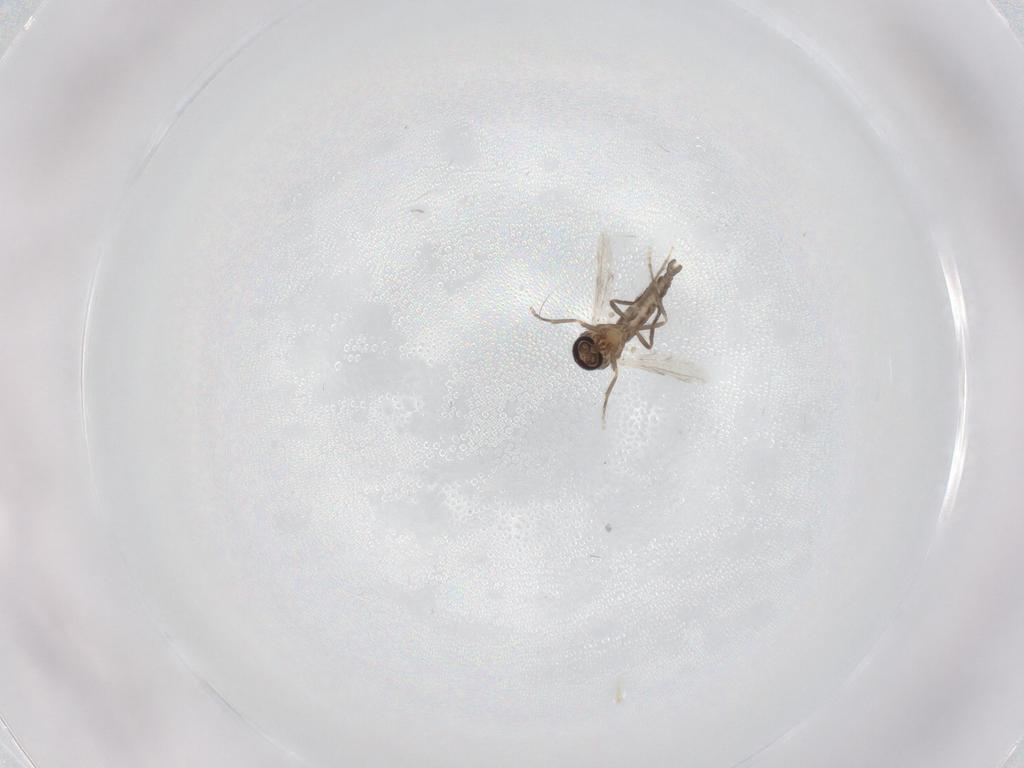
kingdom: Animalia
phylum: Arthropoda
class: Insecta
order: Diptera
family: Ceratopogonidae
